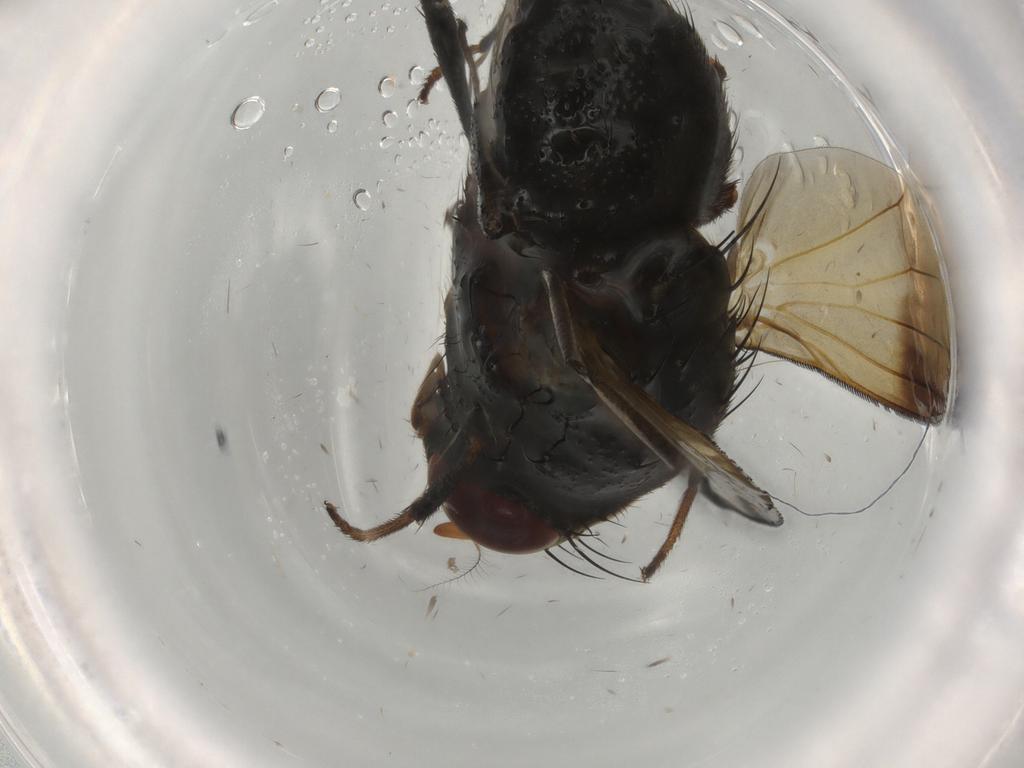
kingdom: Animalia
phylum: Arthropoda
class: Insecta
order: Diptera
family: Lauxaniidae
